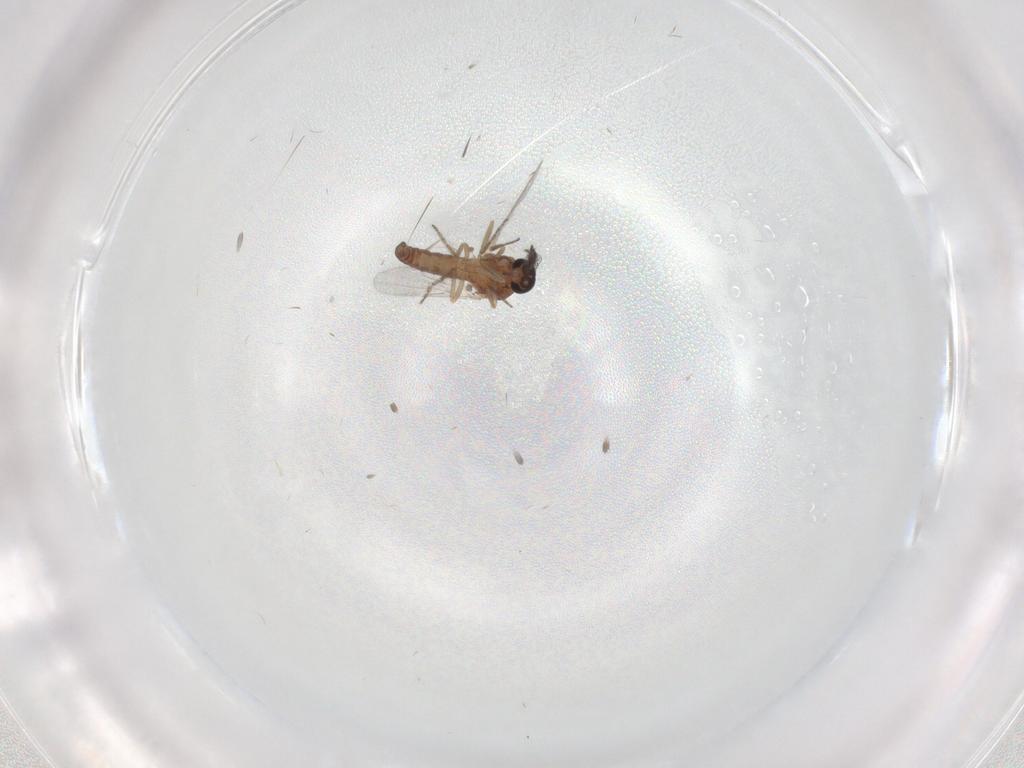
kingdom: Animalia
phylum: Arthropoda
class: Insecta
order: Diptera
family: Ceratopogonidae
